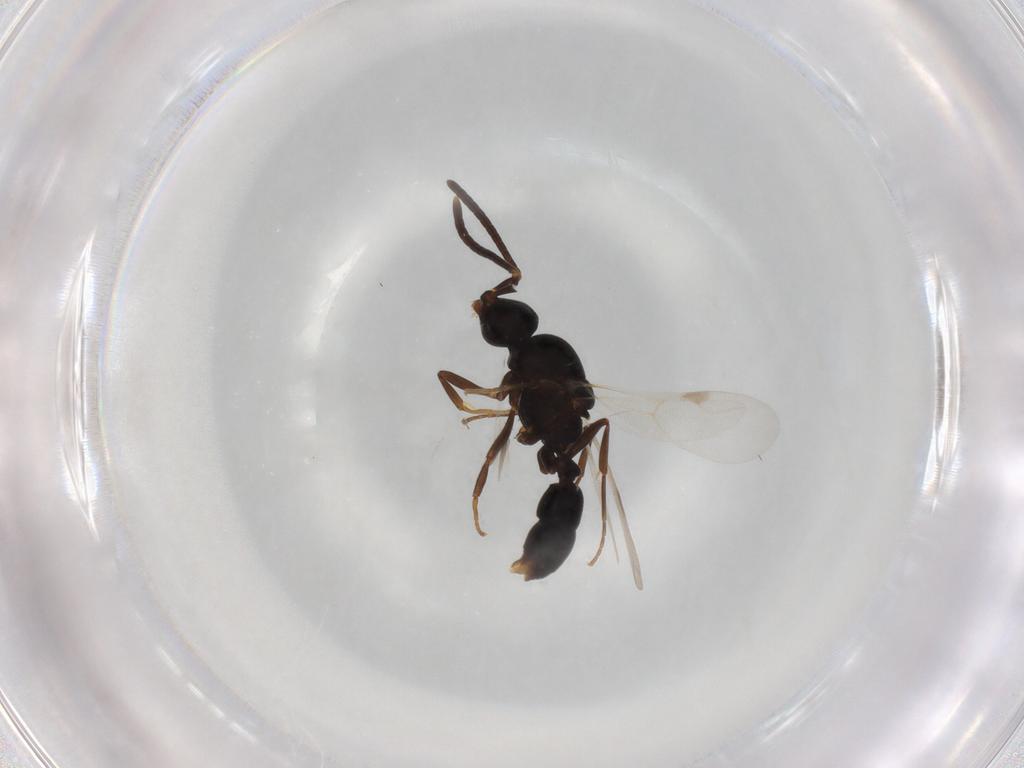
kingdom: Animalia
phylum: Arthropoda
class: Insecta
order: Hymenoptera
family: Formicidae
